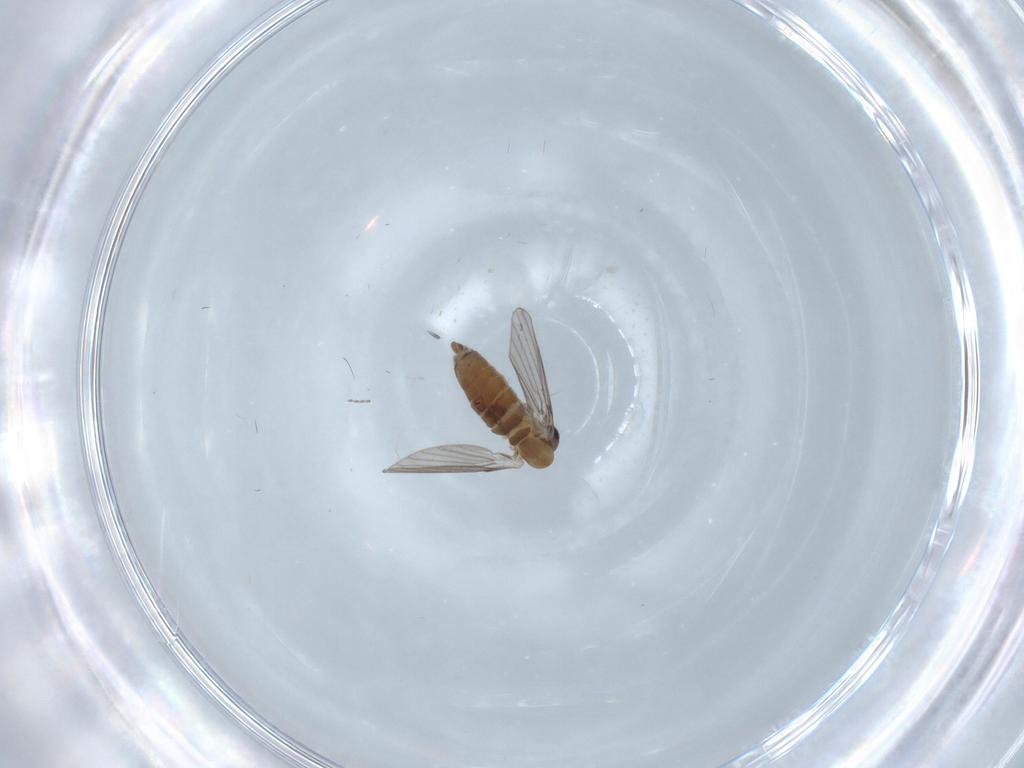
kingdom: Animalia
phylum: Arthropoda
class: Insecta
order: Diptera
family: Psychodidae
